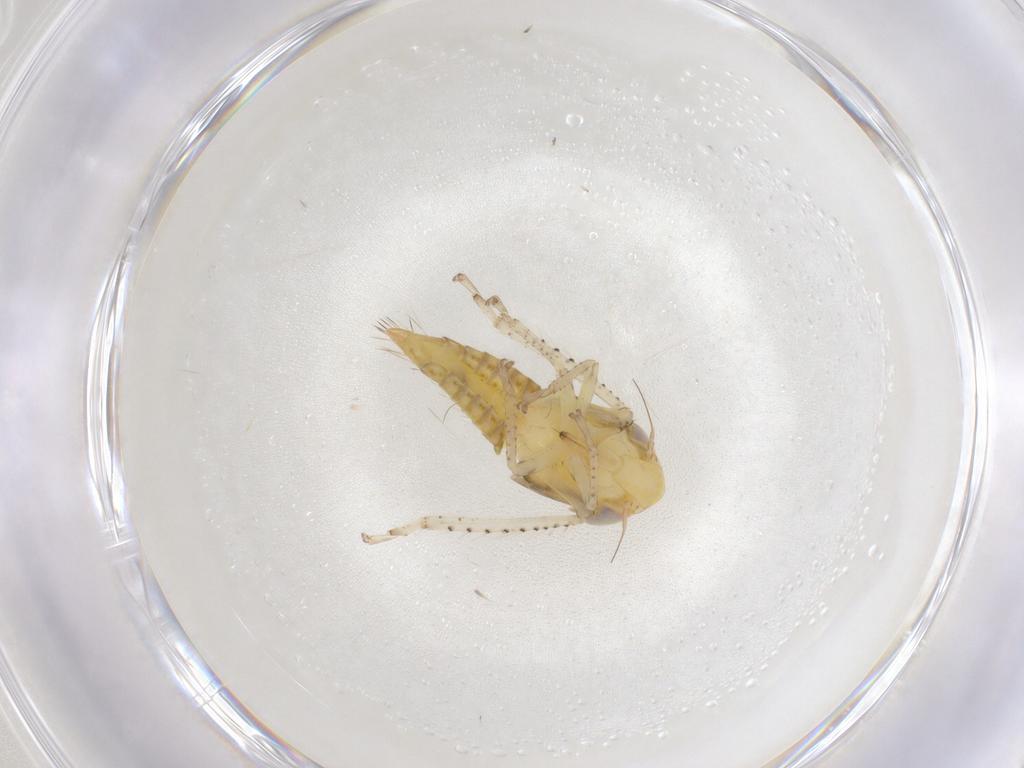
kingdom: Animalia
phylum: Arthropoda
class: Insecta
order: Hemiptera
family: Cicadellidae
